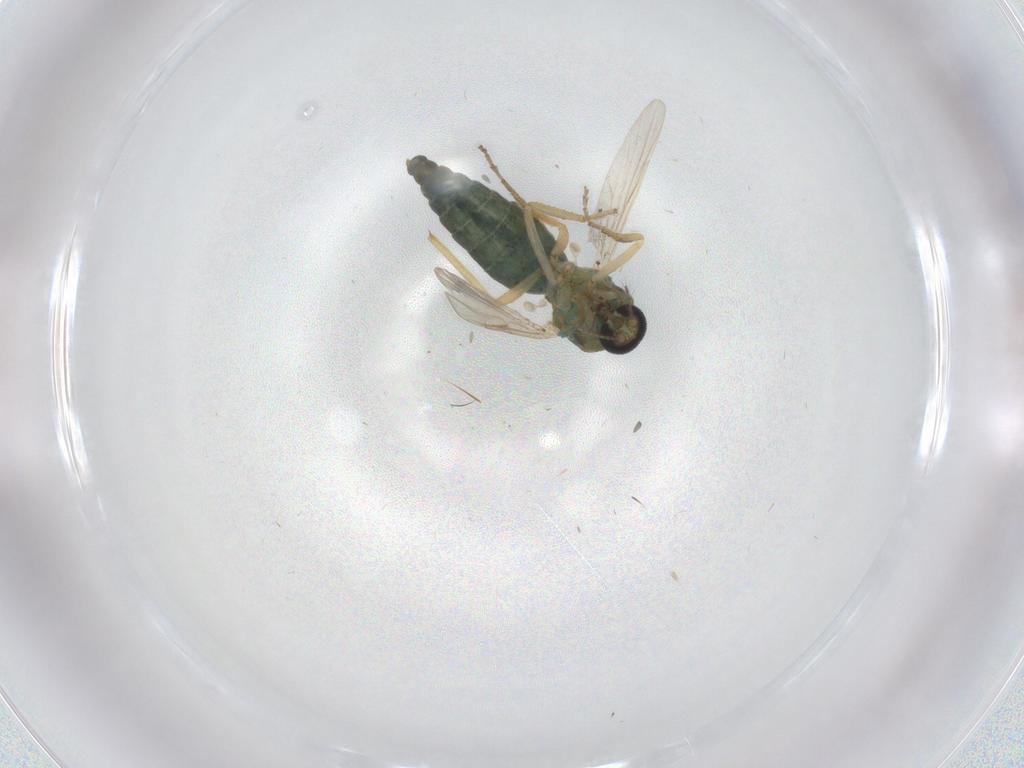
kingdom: Animalia
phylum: Arthropoda
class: Insecta
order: Diptera
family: Ceratopogonidae
